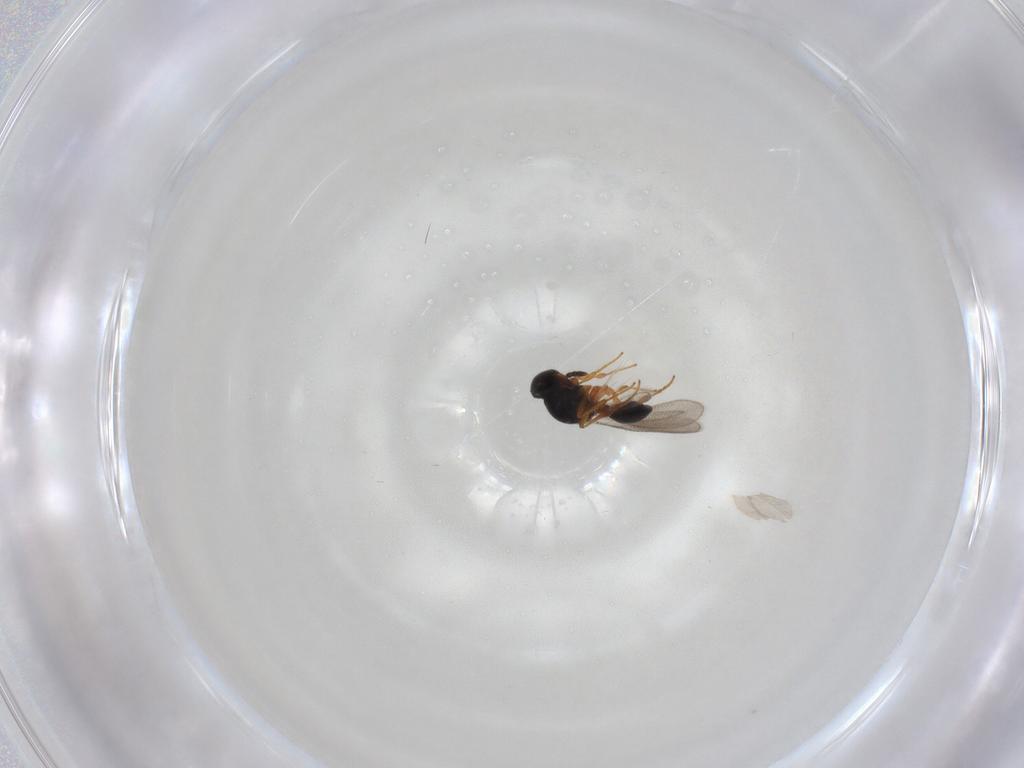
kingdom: Animalia
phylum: Arthropoda
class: Insecta
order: Hymenoptera
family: Platygastridae
